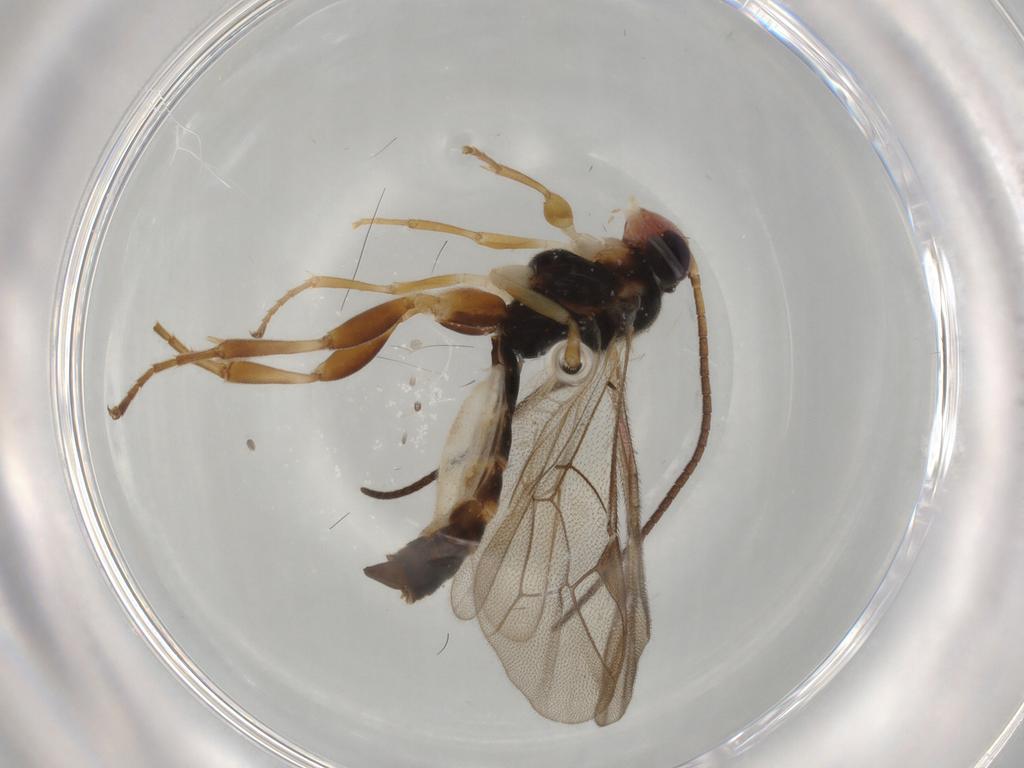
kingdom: Animalia
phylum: Arthropoda
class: Insecta
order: Hymenoptera
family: Ichneumonidae
